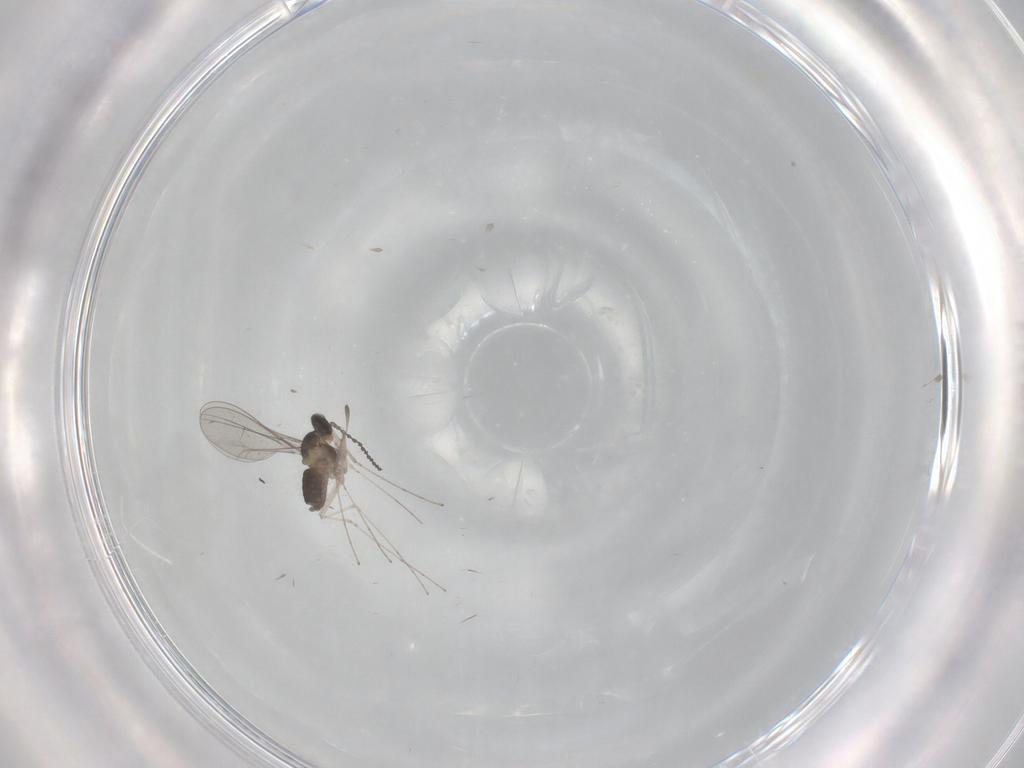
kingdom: Animalia
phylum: Arthropoda
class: Insecta
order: Diptera
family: Cecidomyiidae
